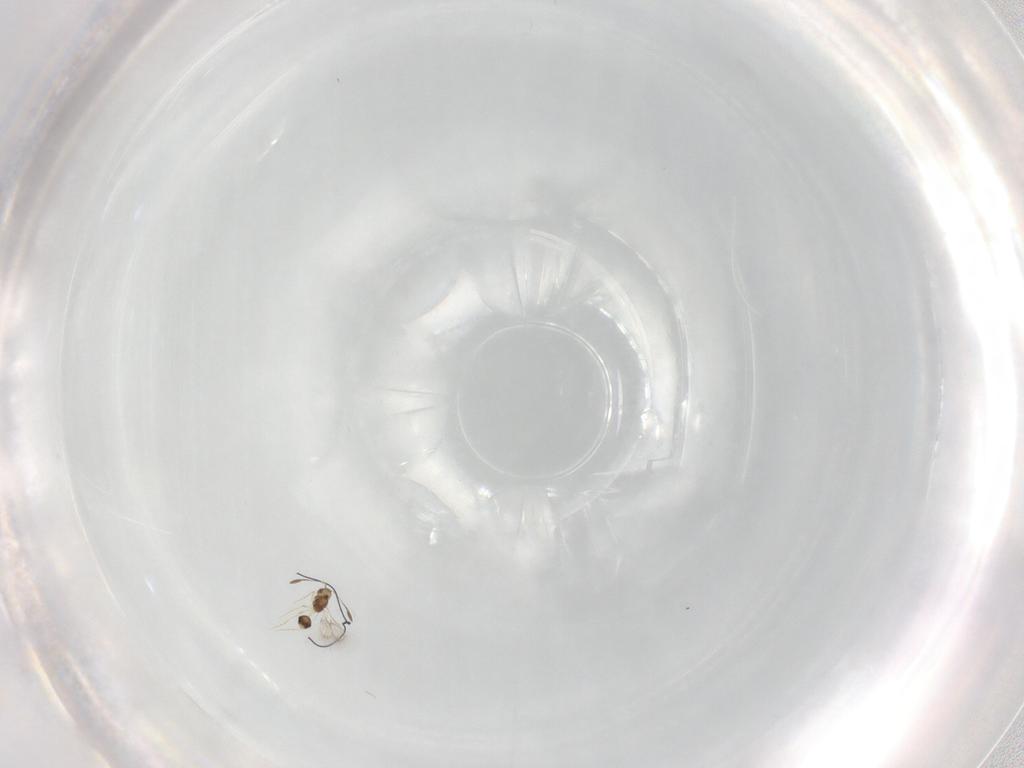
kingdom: Animalia
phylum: Arthropoda
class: Insecta
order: Hymenoptera
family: Mymarommatidae
